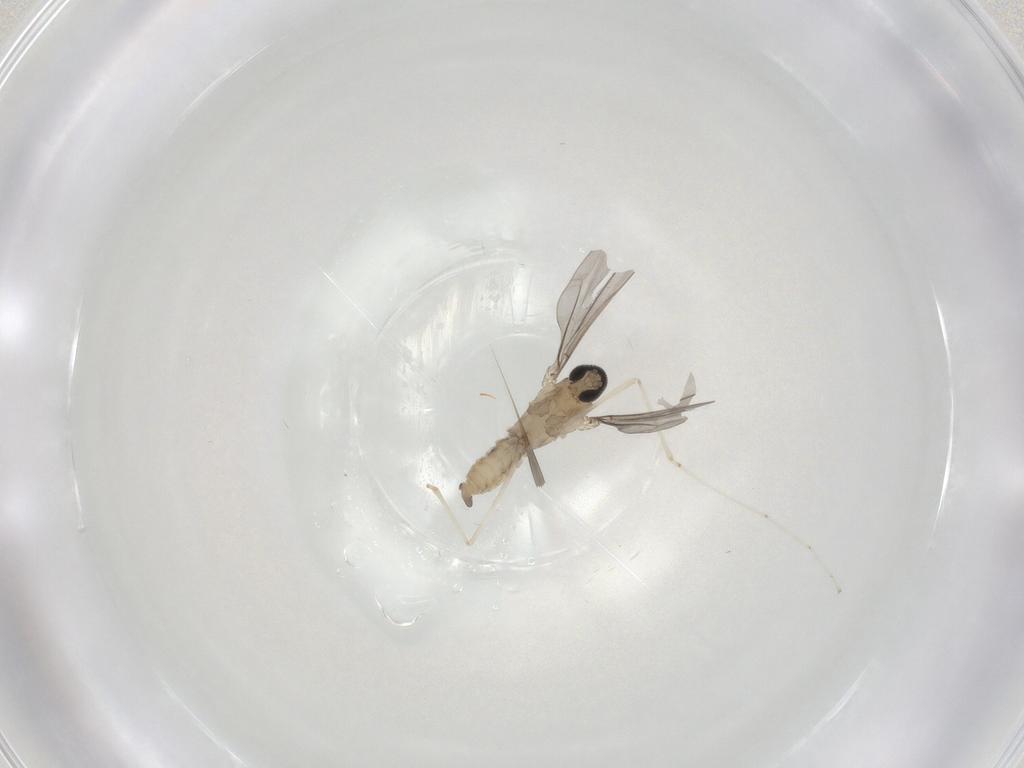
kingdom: Animalia
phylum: Arthropoda
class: Insecta
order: Diptera
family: Cecidomyiidae
